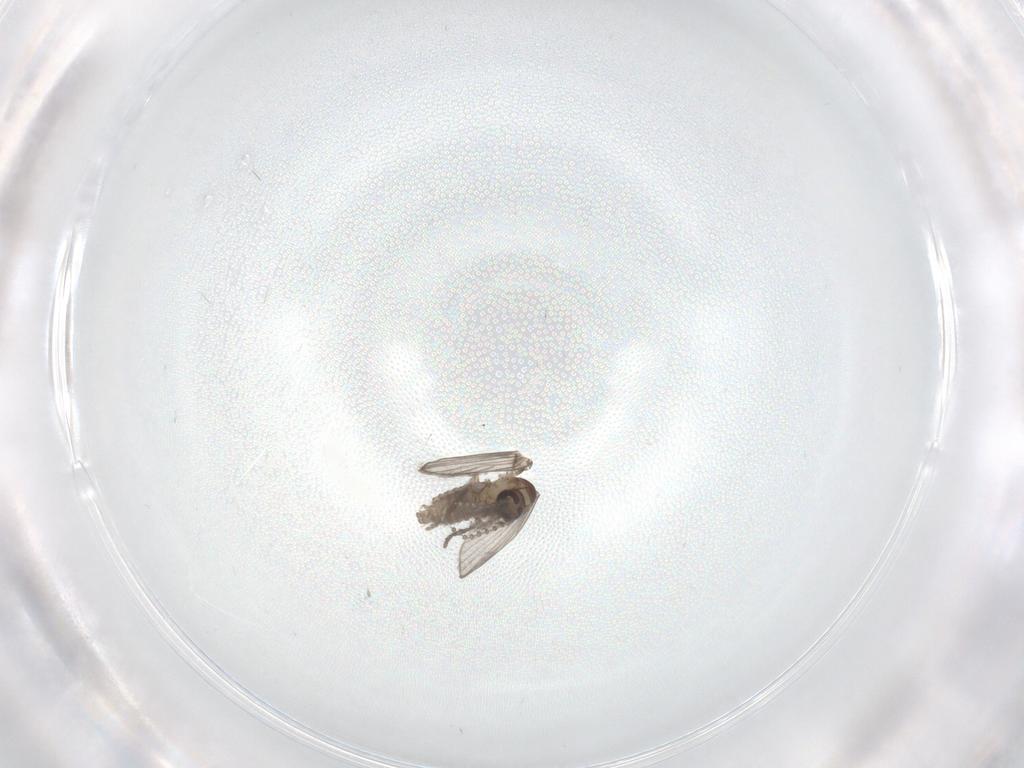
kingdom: Animalia
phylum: Arthropoda
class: Insecta
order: Diptera
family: Psychodidae
